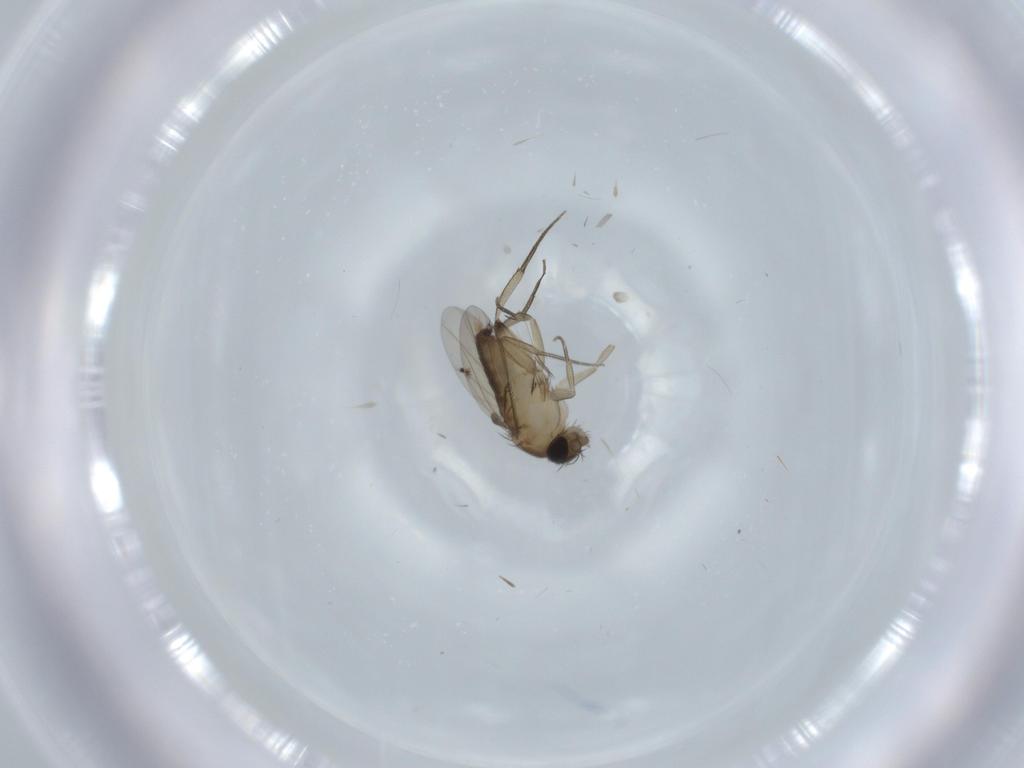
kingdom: Animalia
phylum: Arthropoda
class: Insecta
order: Diptera
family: Phoridae
